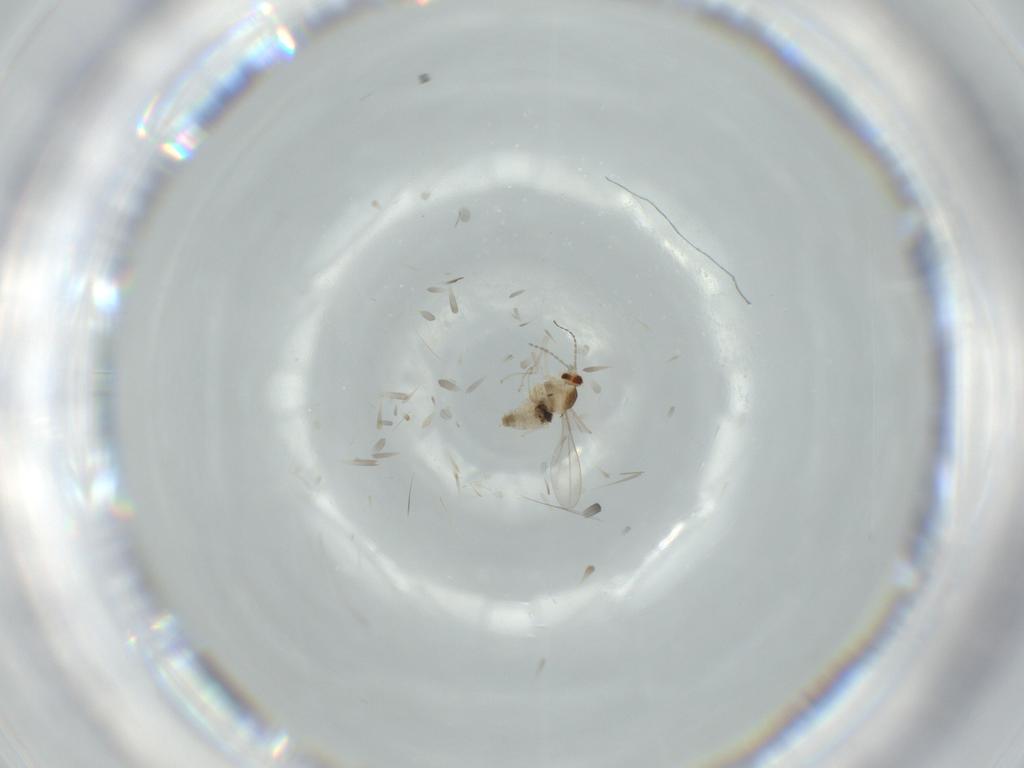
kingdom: Animalia
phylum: Arthropoda
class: Insecta
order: Diptera
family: Cecidomyiidae
